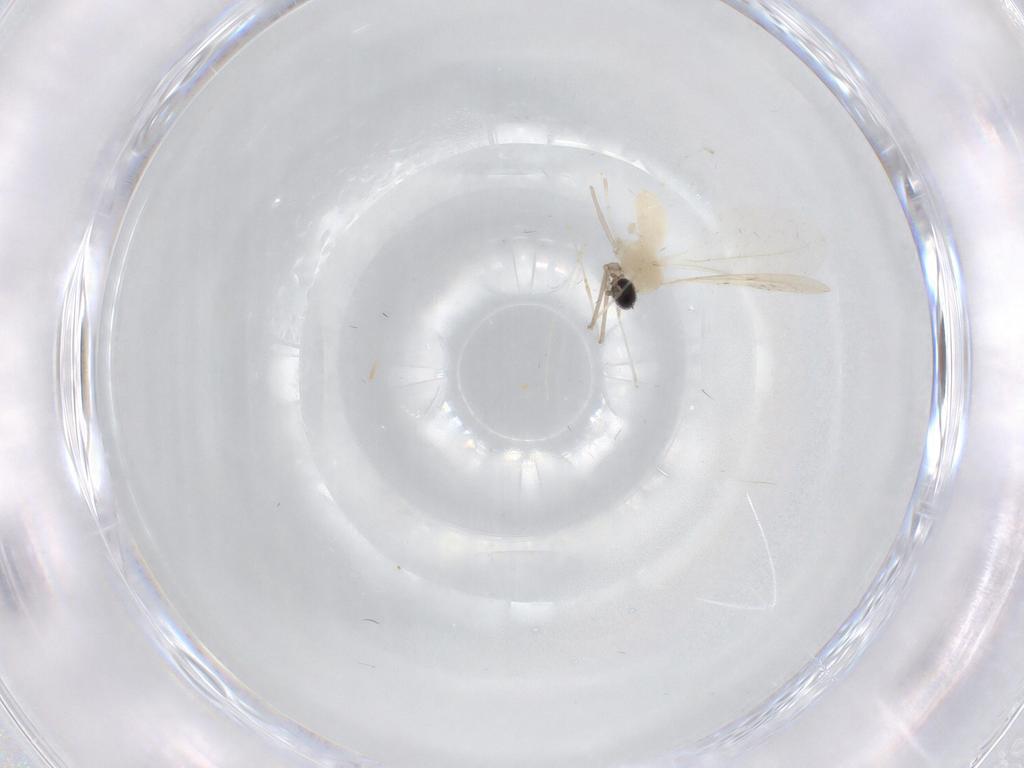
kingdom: Animalia
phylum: Arthropoda
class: Insecta
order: Diptera
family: Cecidomyiidae
